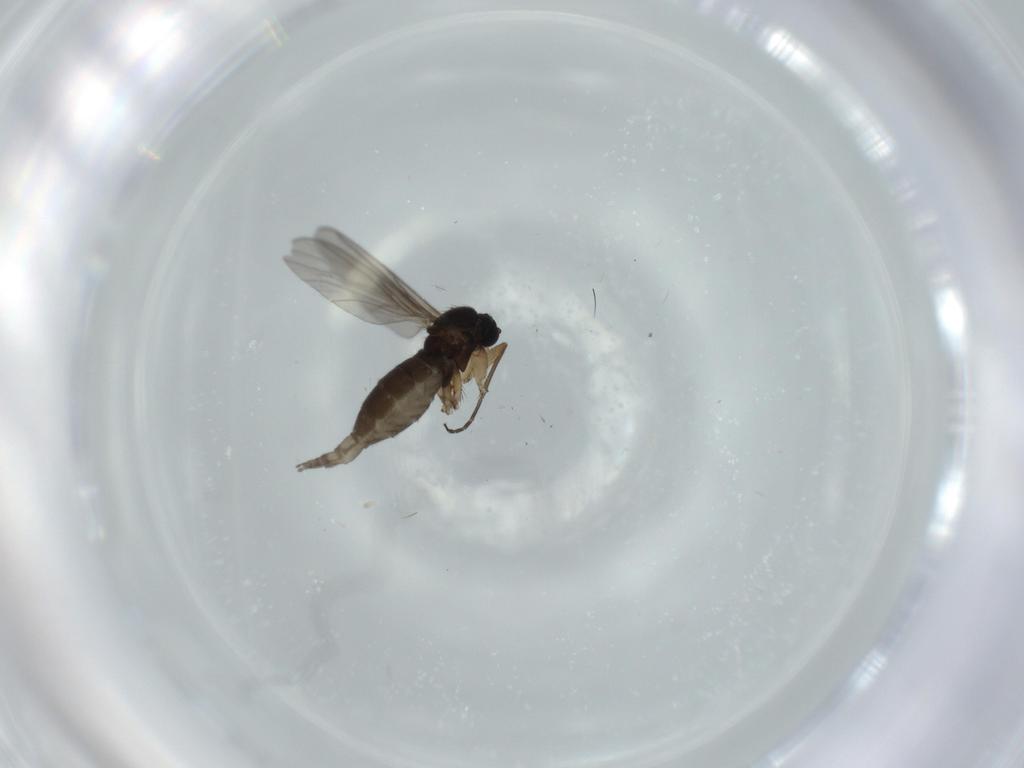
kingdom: Animalia
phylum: Arthropoda
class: Insecta
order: Diptera
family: Sciaridae
